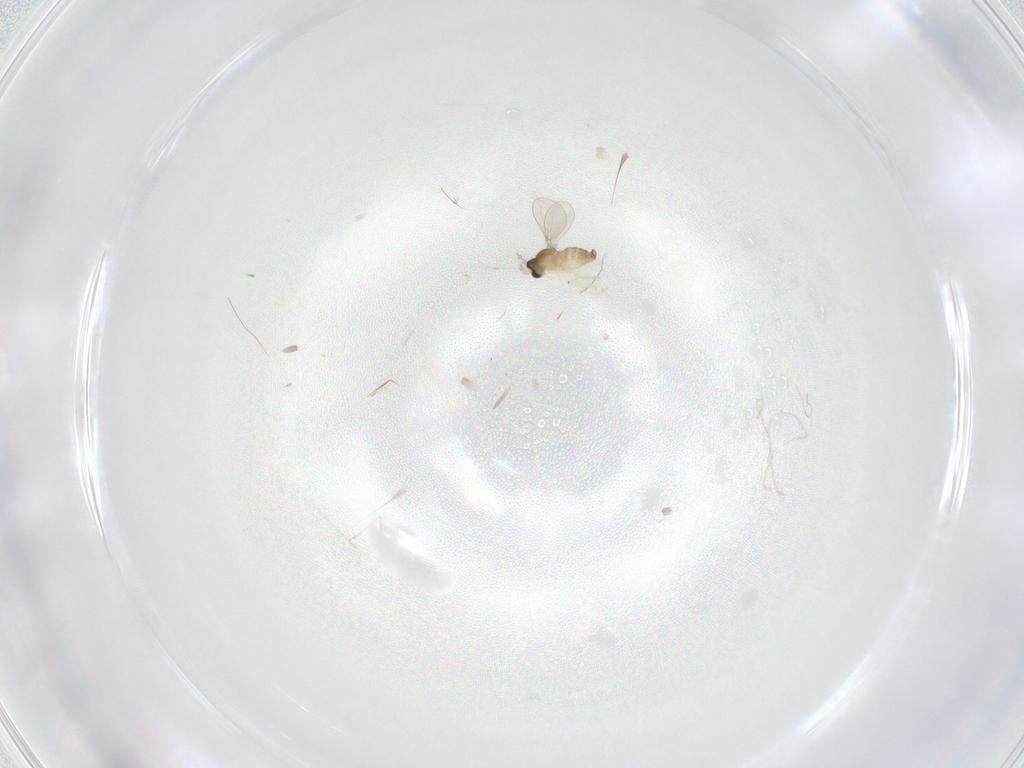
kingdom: Animalia
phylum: Arthropoda
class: Insecta
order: Diptera
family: Cecidomyiidae
